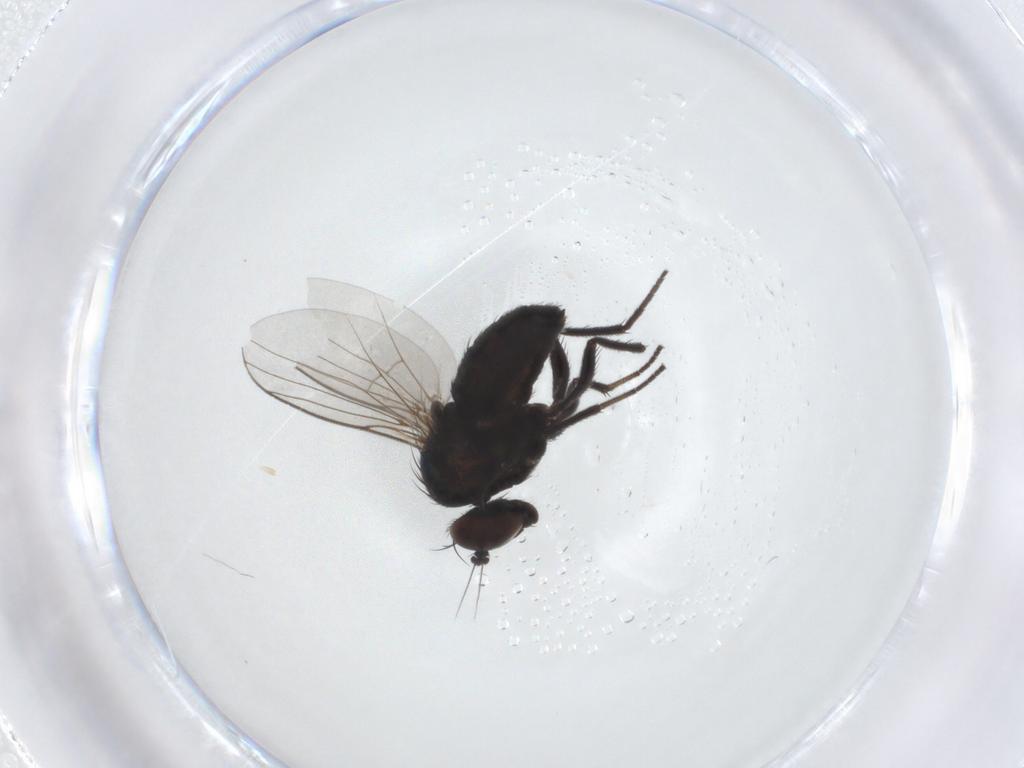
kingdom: Animalia
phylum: Arthropoda
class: Insecta
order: Diptera
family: Dolichopodidae
